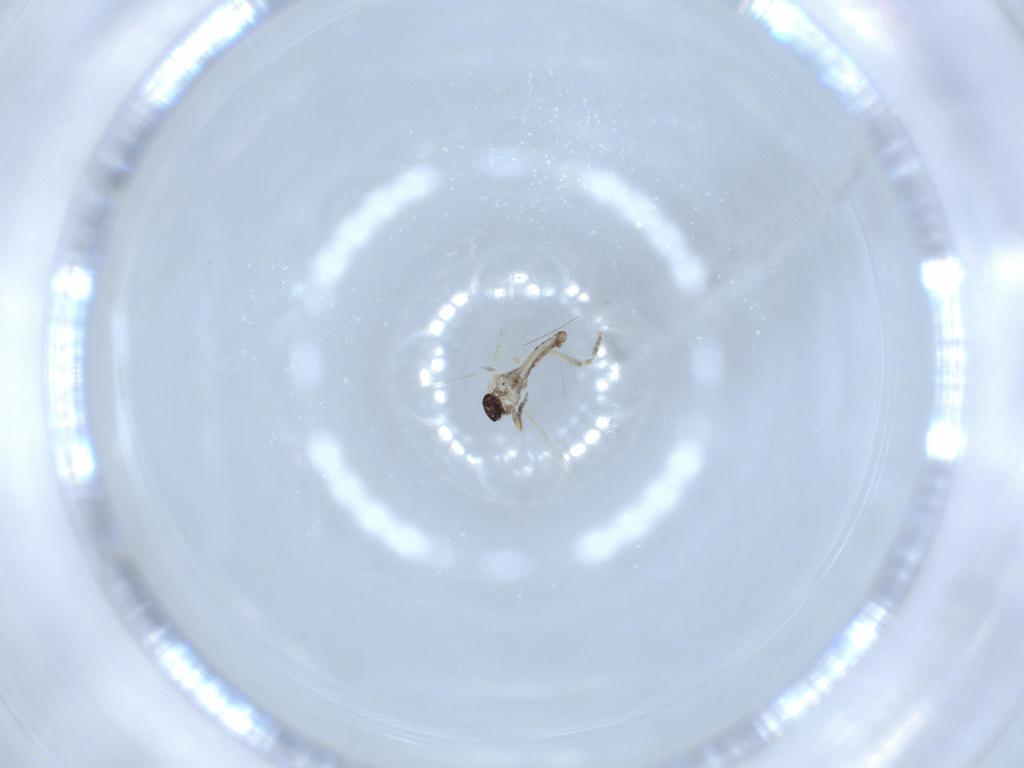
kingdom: Animalia
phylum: Arthropoda
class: Insecta
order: Diptera
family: Ceratopogonidae
